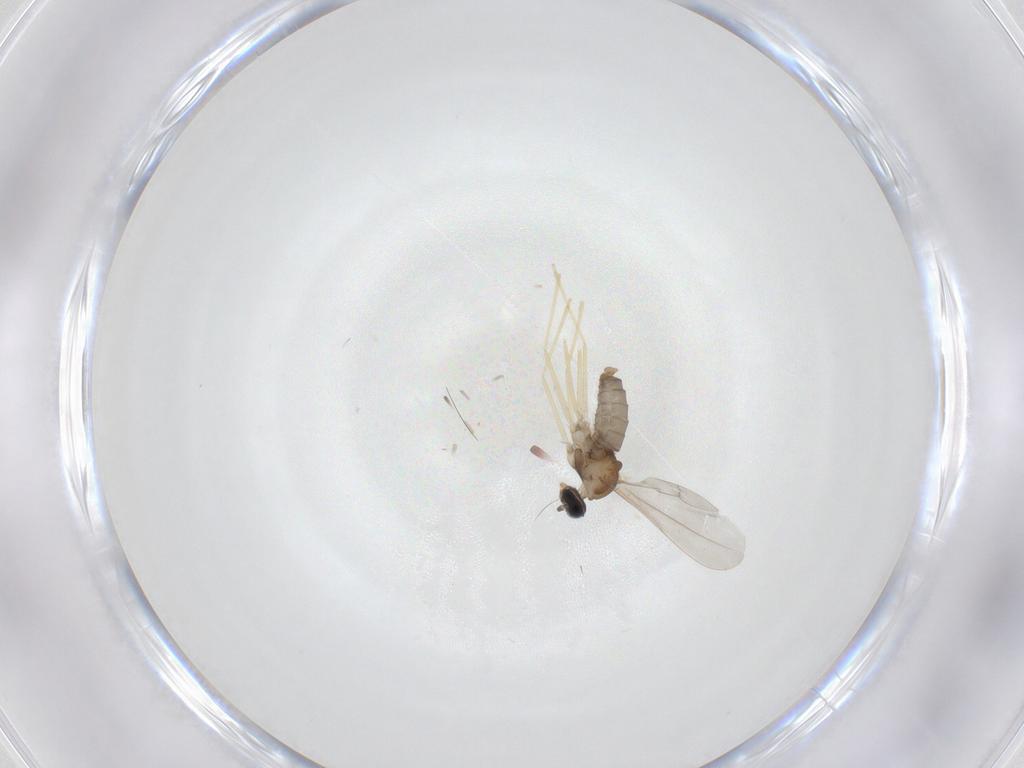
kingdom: Animalia
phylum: Arthropoda
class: Insecta
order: Diptera
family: Cecidomyiidae
